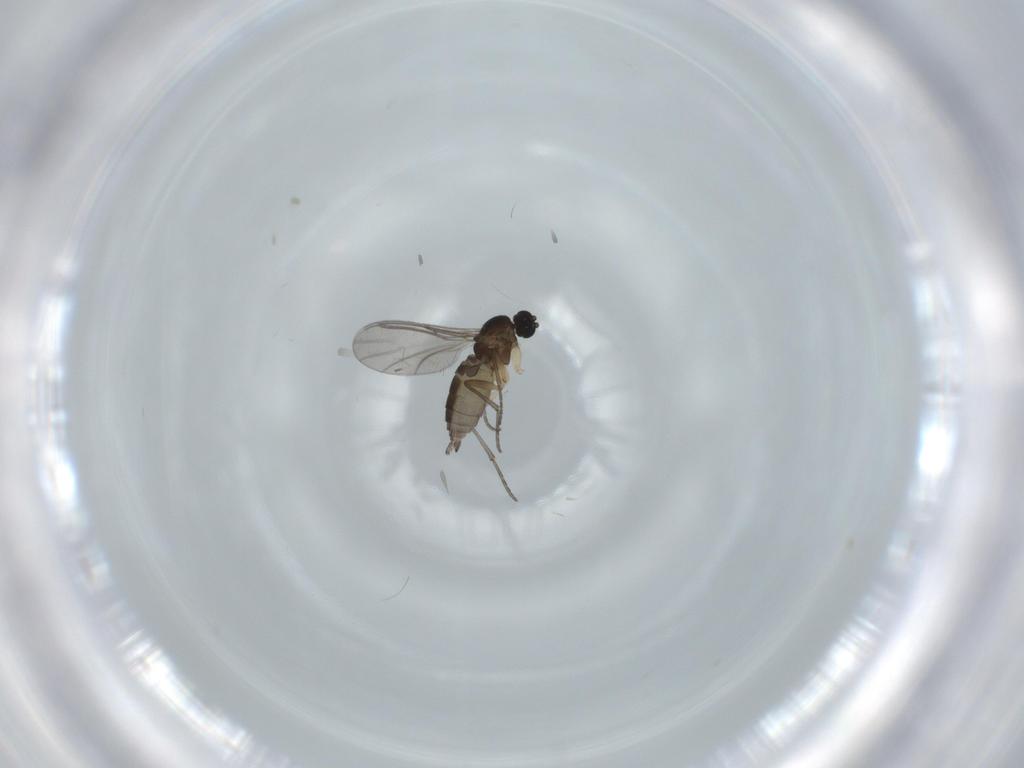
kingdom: Animalia
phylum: Arthropoda
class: Insecta
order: Diptera
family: Sciaridae
